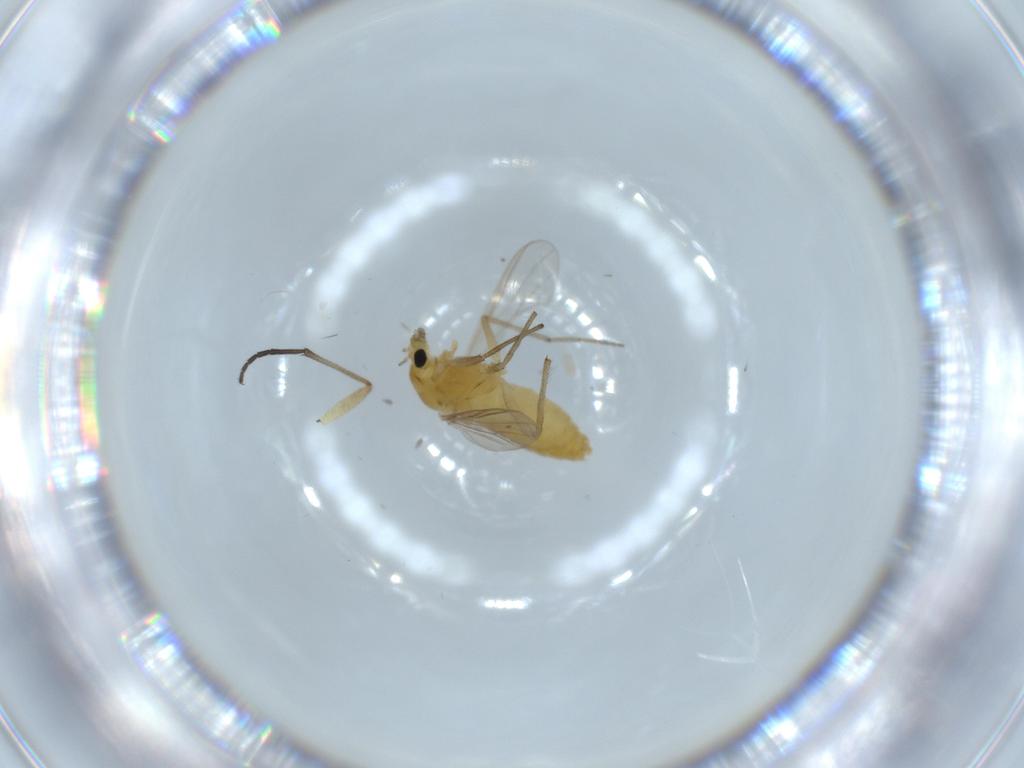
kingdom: Animalia
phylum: Arthropoda
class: Insecta
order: Diptera
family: Chironomidae
